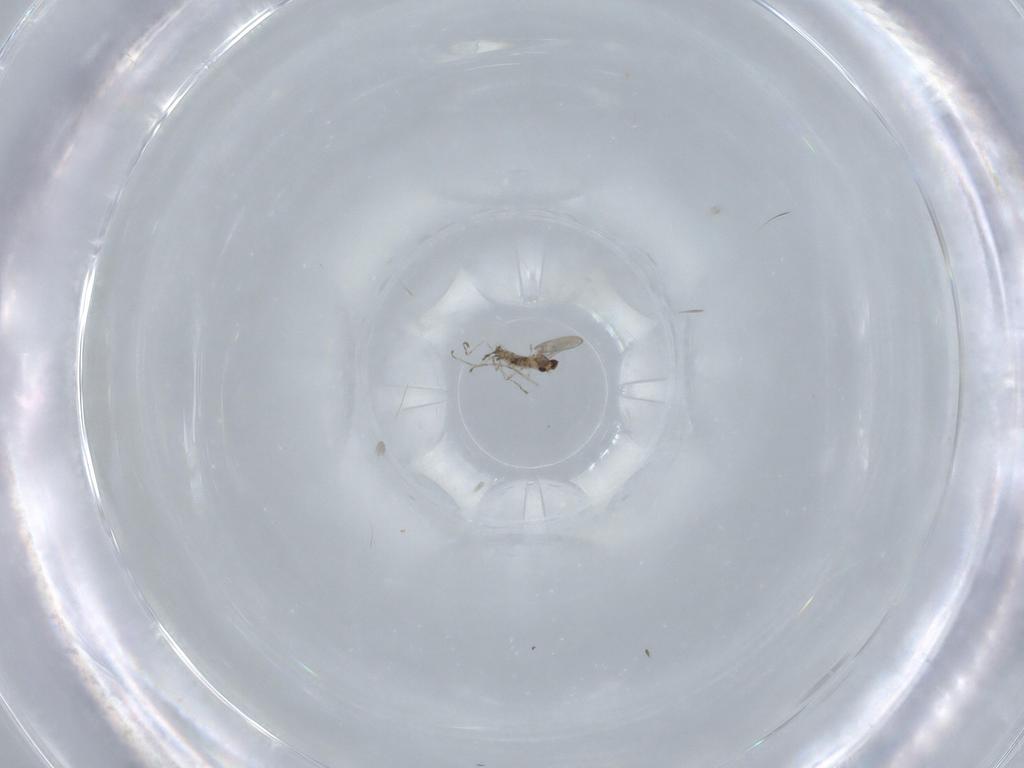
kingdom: Animalia
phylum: Arthropoda
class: Insecta
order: Diptera
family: Cecidomyiidae
